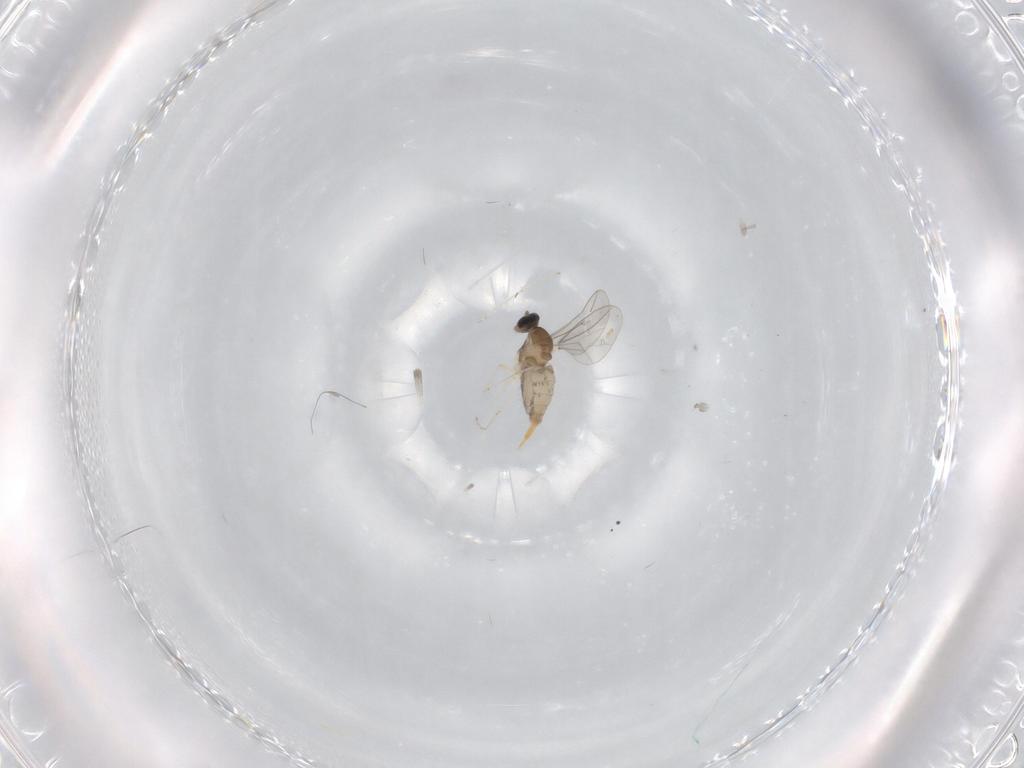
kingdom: Animalia
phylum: Arthropoda
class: Insecta
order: Diptera
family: Cecidomyiidae
